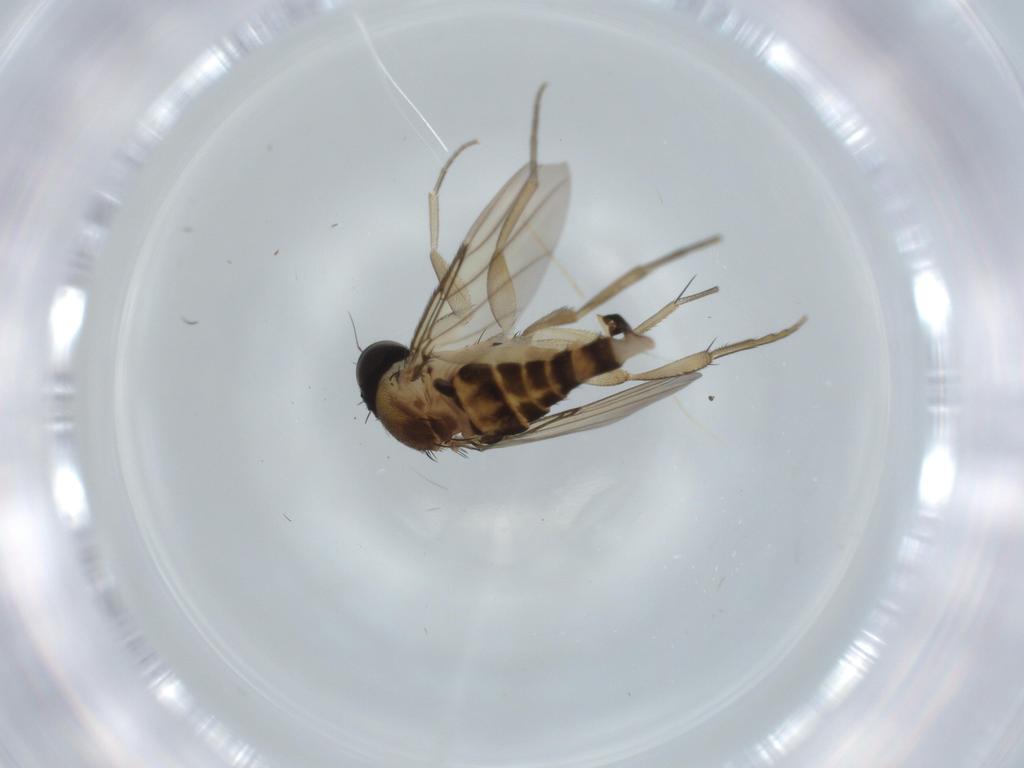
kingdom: Animalia
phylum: Arthropoda
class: Insecta
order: Diptera
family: Phoridae
